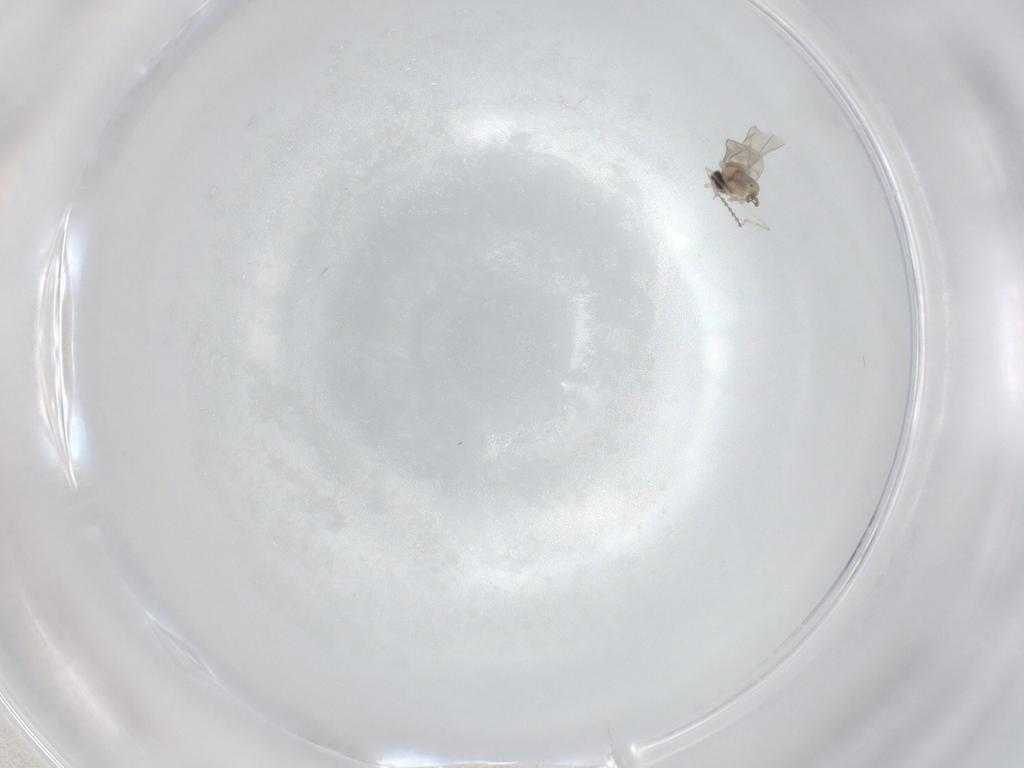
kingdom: Animalia
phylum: Arthropoda
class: Insecta
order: Diptera
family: Cecidomyiidae
